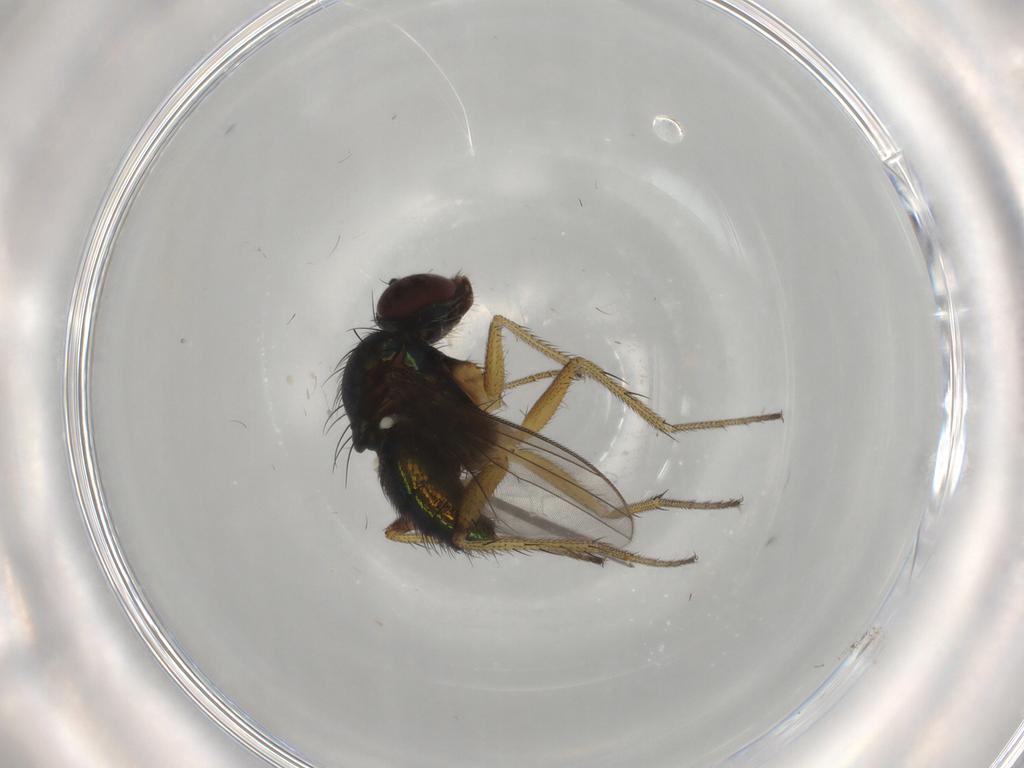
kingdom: Animalia
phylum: Arthropoda
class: Insecta
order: Diptera
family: Dolichopodidae
